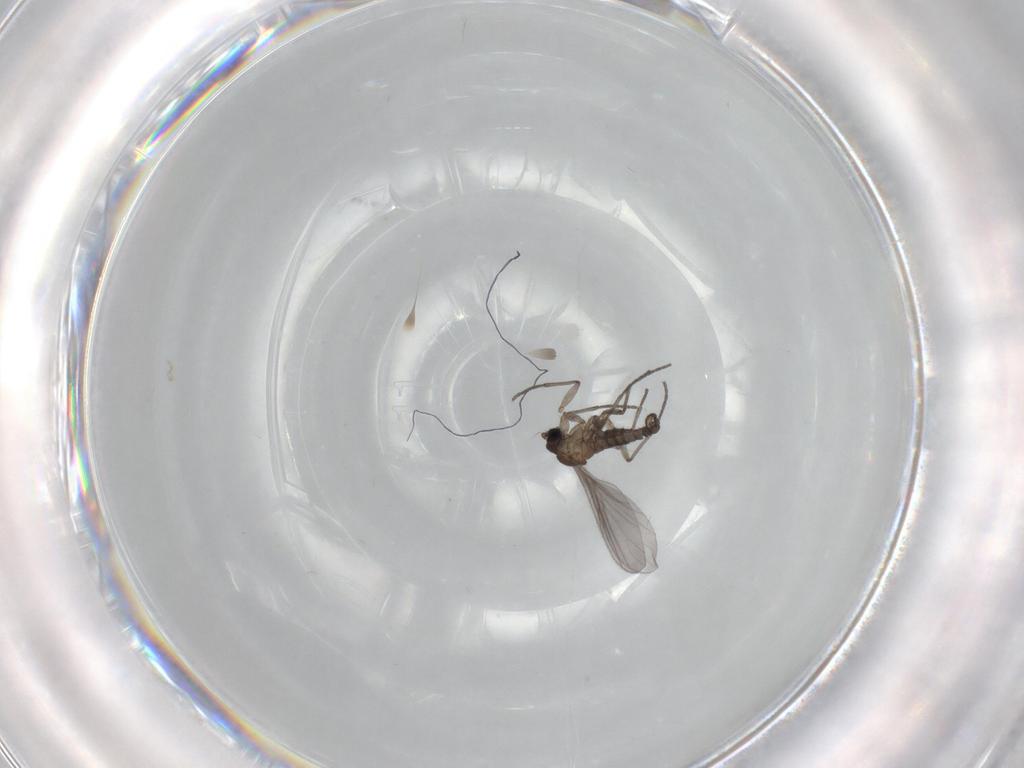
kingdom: Animalia
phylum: Arthropoda
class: Insecta
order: Diptera
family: Sciaridae
